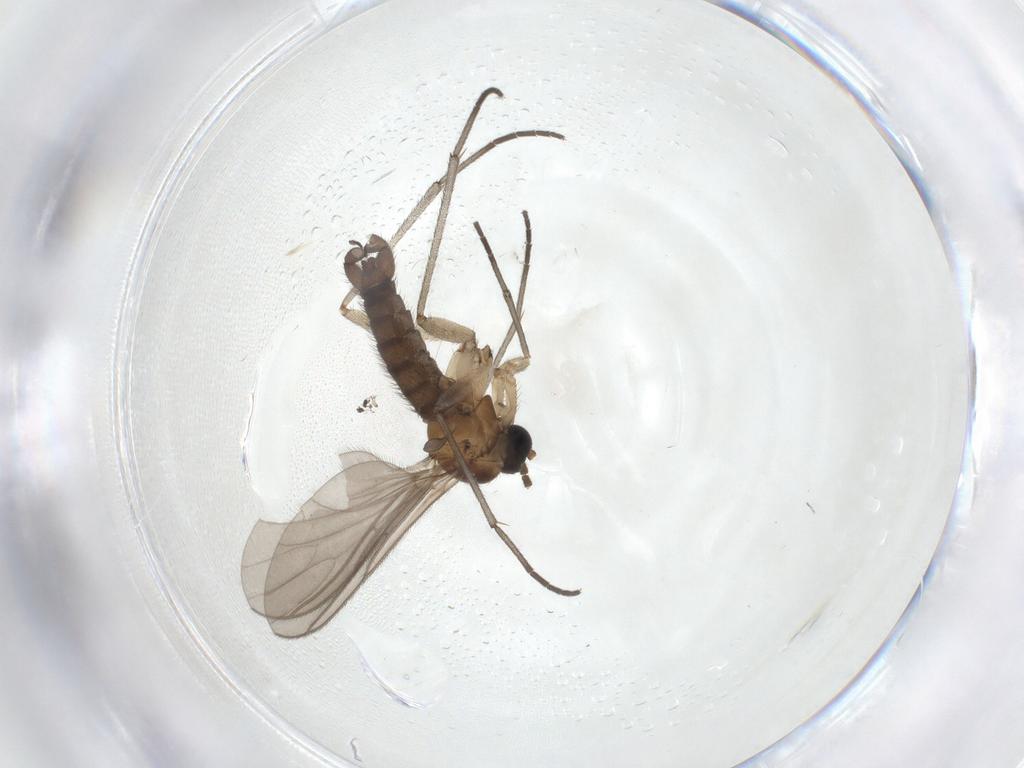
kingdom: Animalia
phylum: Arthropoda
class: Insecta
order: Diptera
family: Sciaridae
